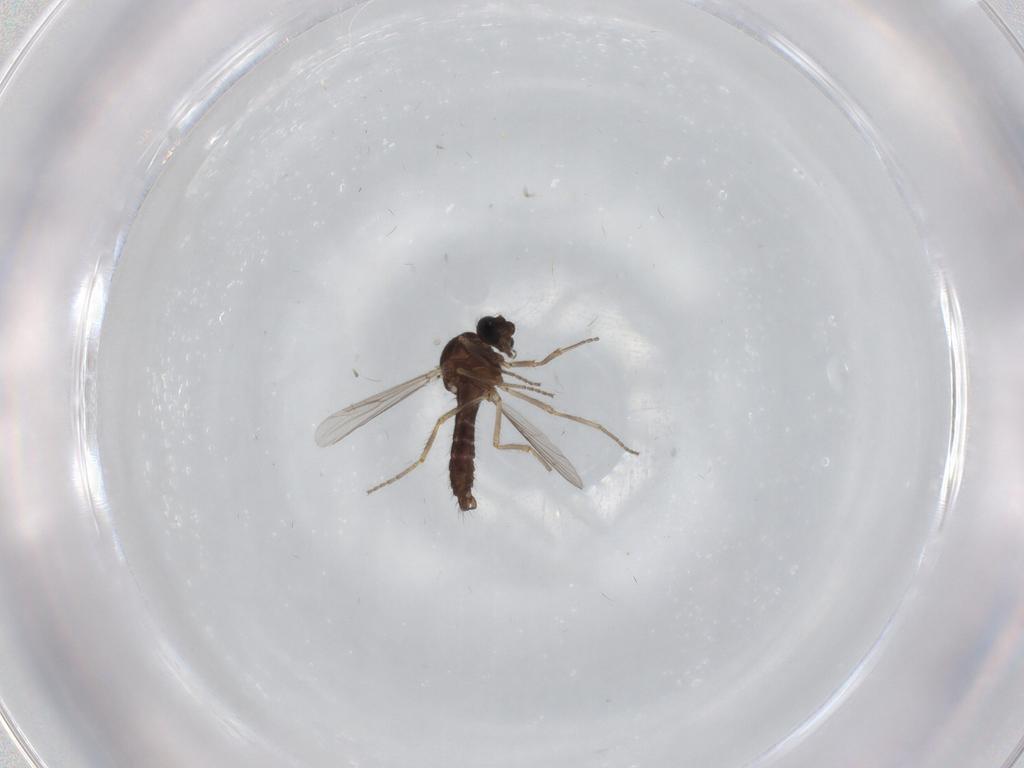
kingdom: Animalia
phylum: Arthropoda
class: Insecta
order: Diptera
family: Ceratopogonidae
